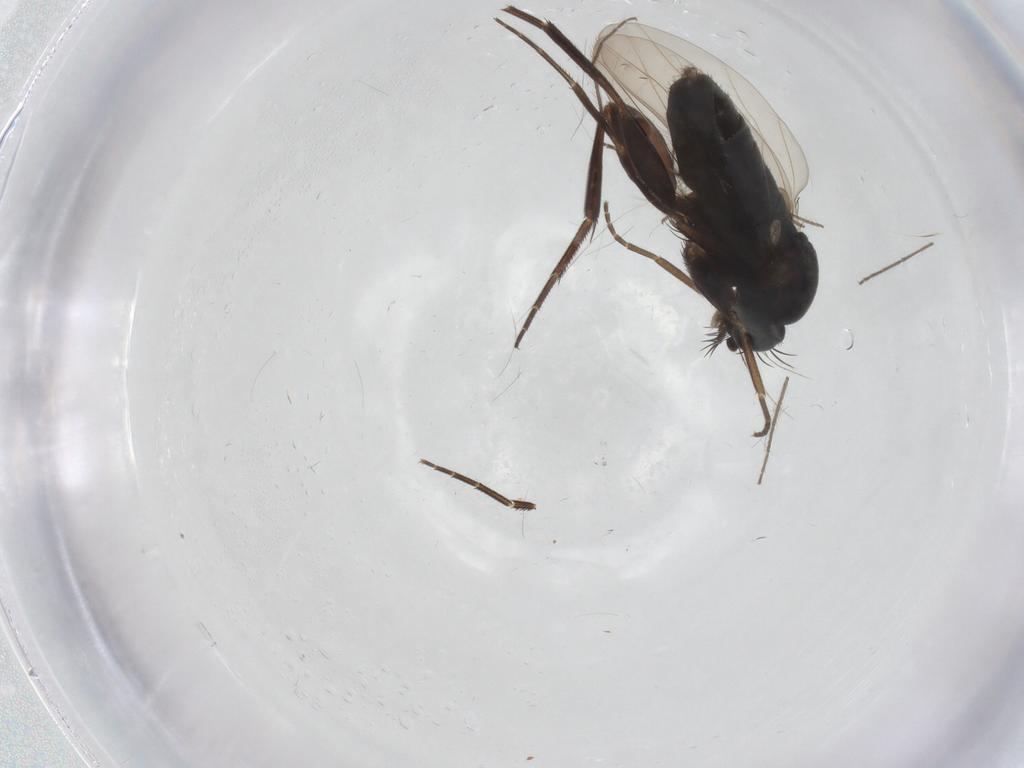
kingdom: Animalia
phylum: Arthropoda
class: Insecta
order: Diptera
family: Phoridae
